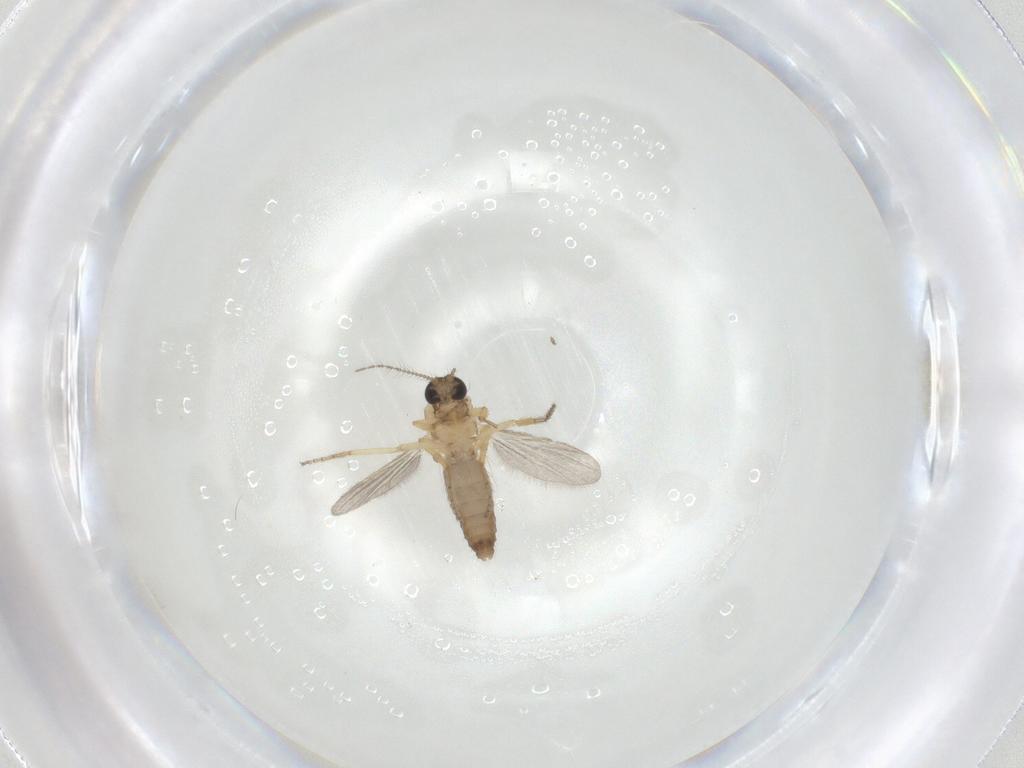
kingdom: Animalia
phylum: Arthropoda
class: Insecta
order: Diptera
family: Ceratopogonidae
